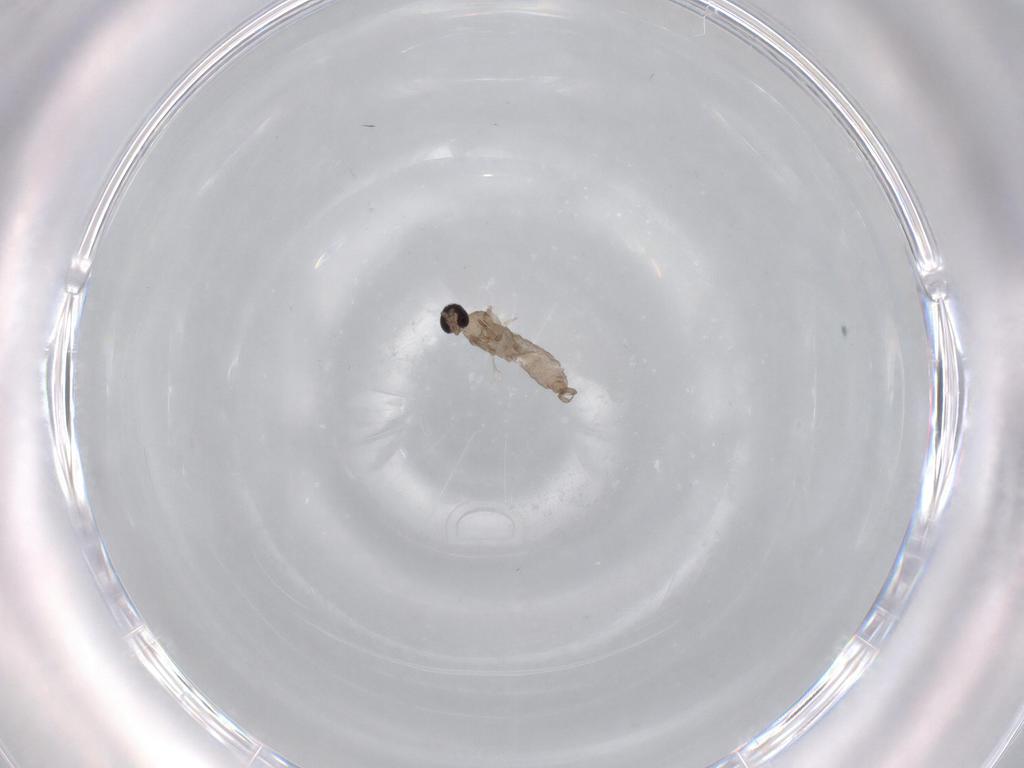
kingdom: Animalia
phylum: Arthropoda
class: Insecta
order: Diptera
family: Cecidomyiidae
